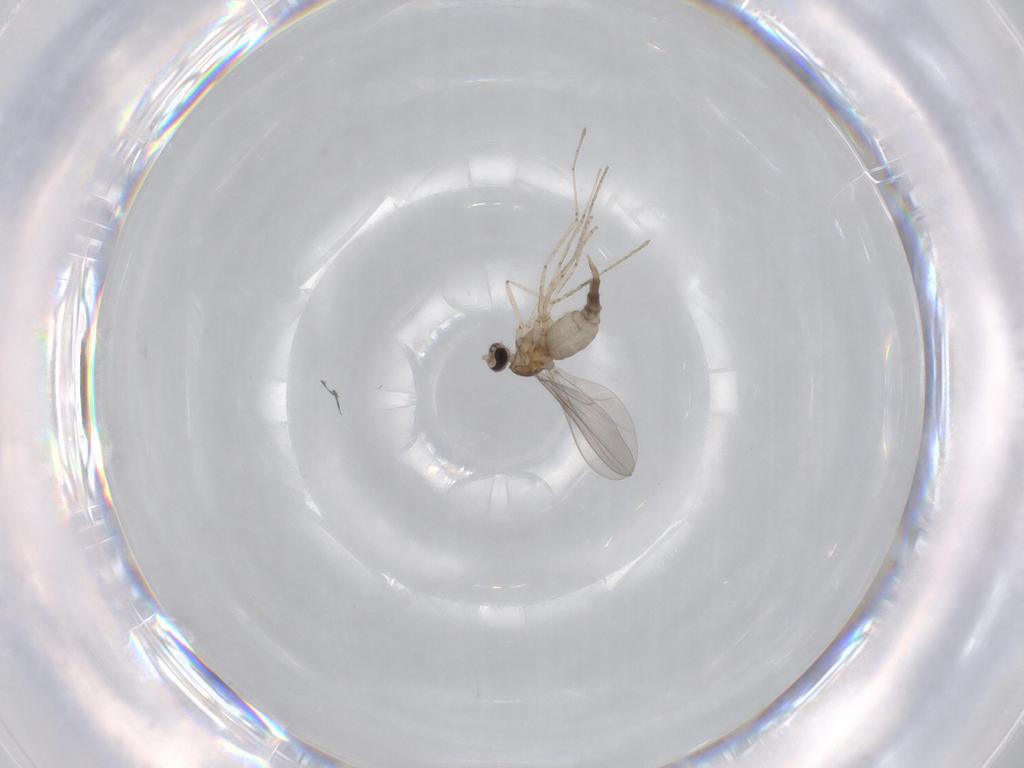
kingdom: Animalia
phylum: Arthropoda
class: Insecta
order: Diptera
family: Cecidomyiidae
